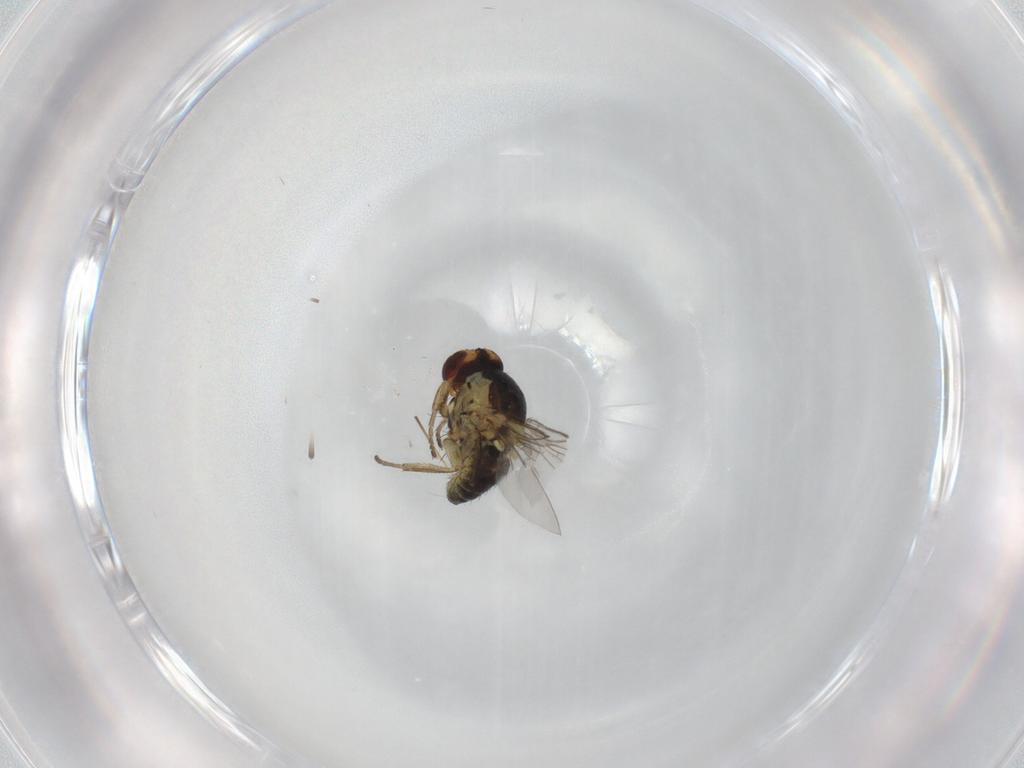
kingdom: Animalia
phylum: Arthropoda
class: Insecta
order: Diptera
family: Agromyzidae
